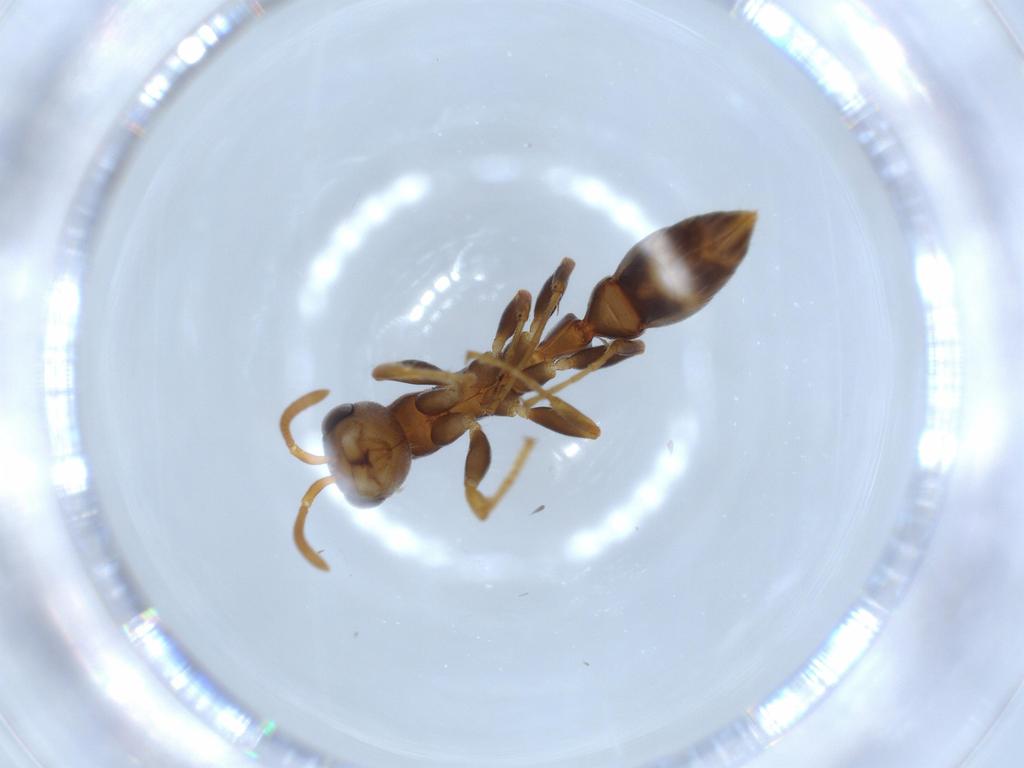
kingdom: Animalia
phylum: Arthropoda
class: Insecta
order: Hymenoptera
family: Formicidae
